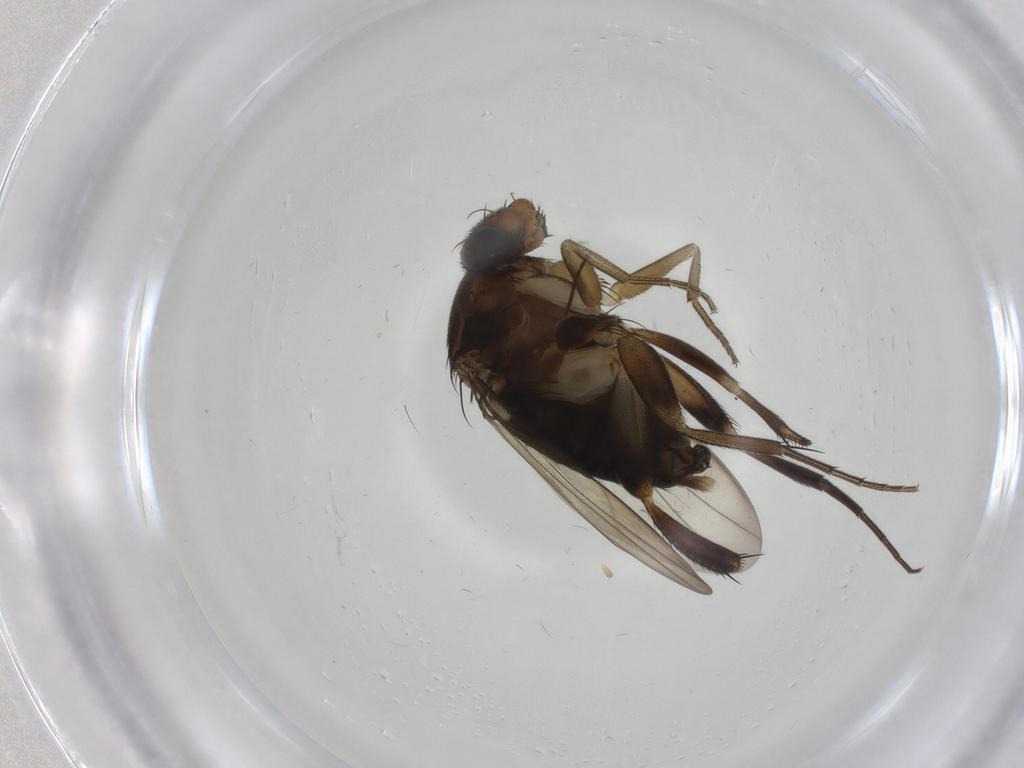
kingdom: Animalia
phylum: Arthropoda
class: Insecta
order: Diptera
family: Phoridae
